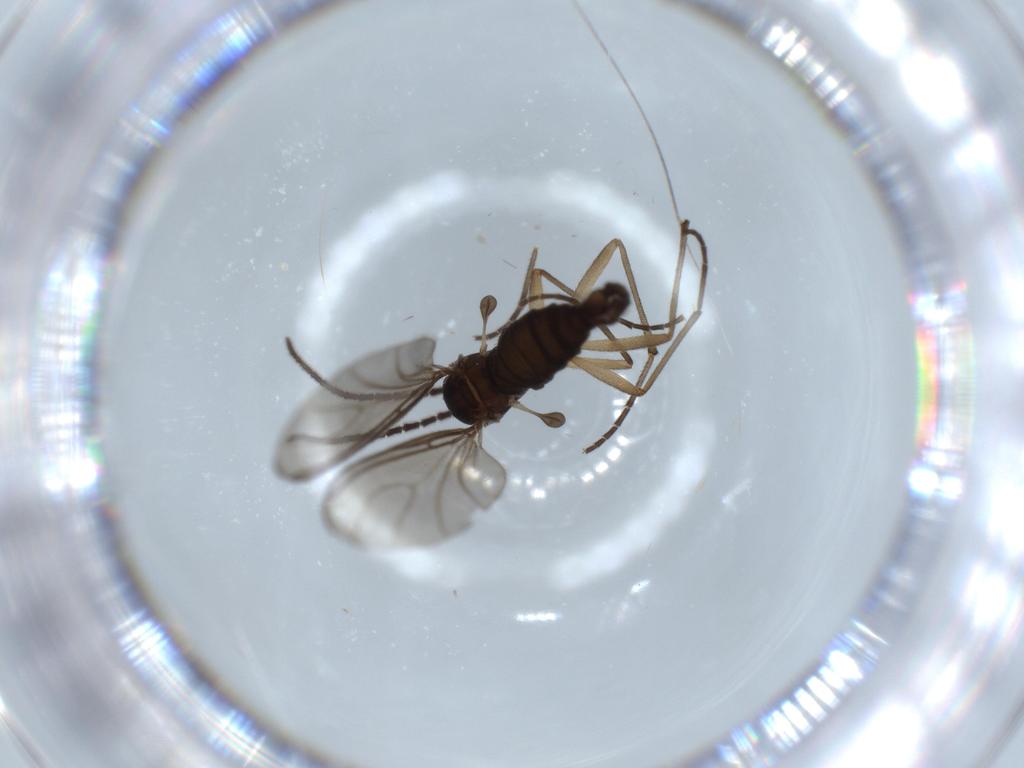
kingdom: Animalia
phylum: Arthropoda
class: Insecta
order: Diptera
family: Sciaridae
